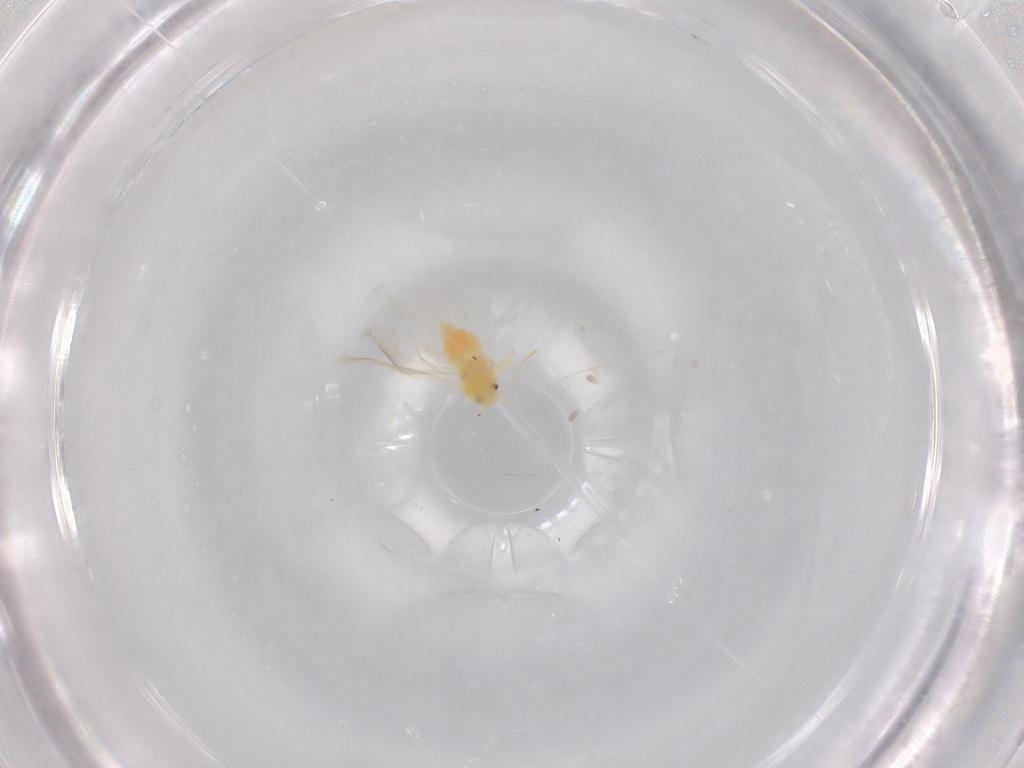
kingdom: Animalia
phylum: Arthropoda
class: Insecta
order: Hemiptera
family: Aleyrodidae
